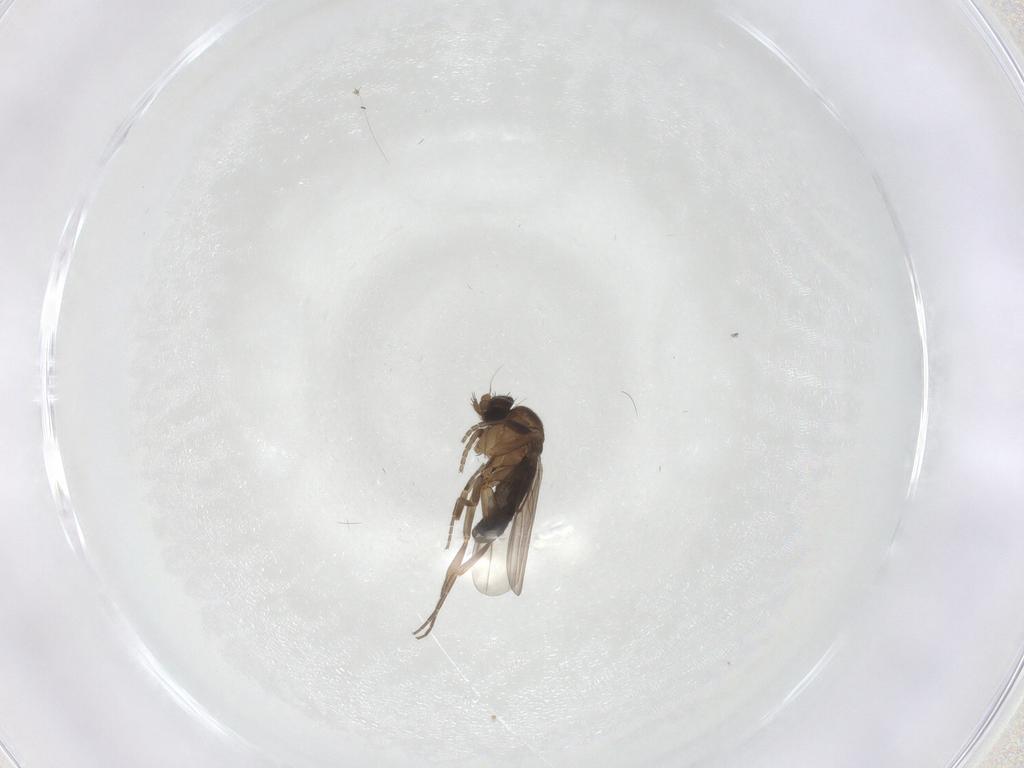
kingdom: Animalia
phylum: Arthropoda
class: Insecta
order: Diptera
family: Phoridae
